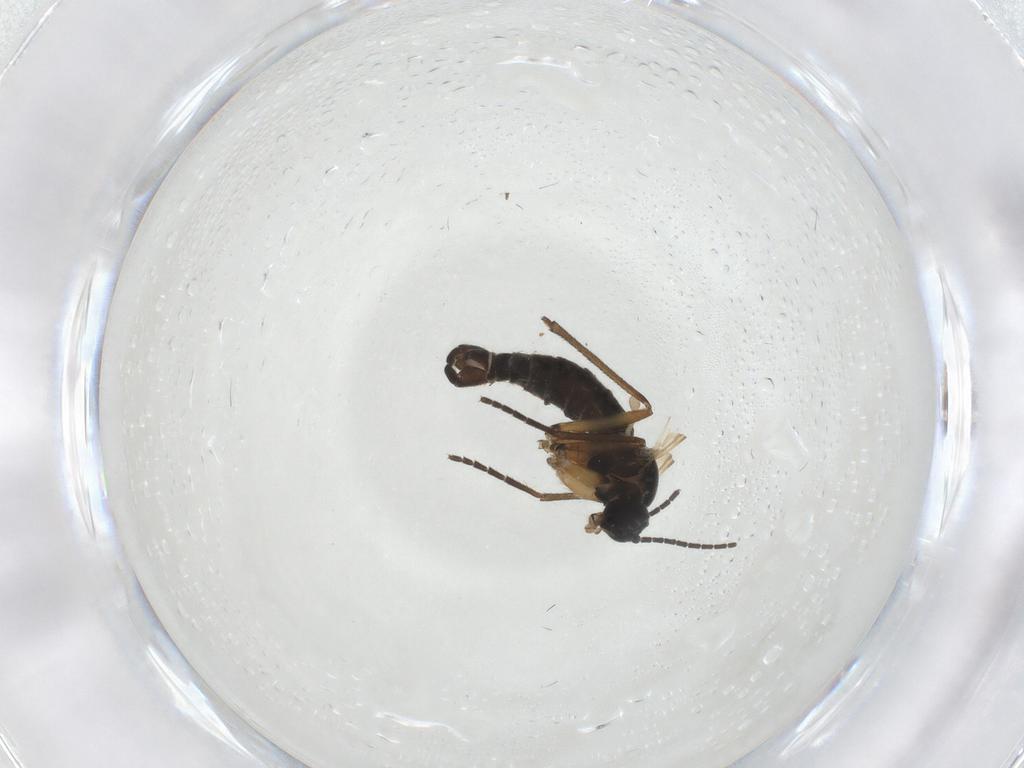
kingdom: Animalia
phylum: Arthropoda
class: Insecta
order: Diptera
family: Sciaridae
